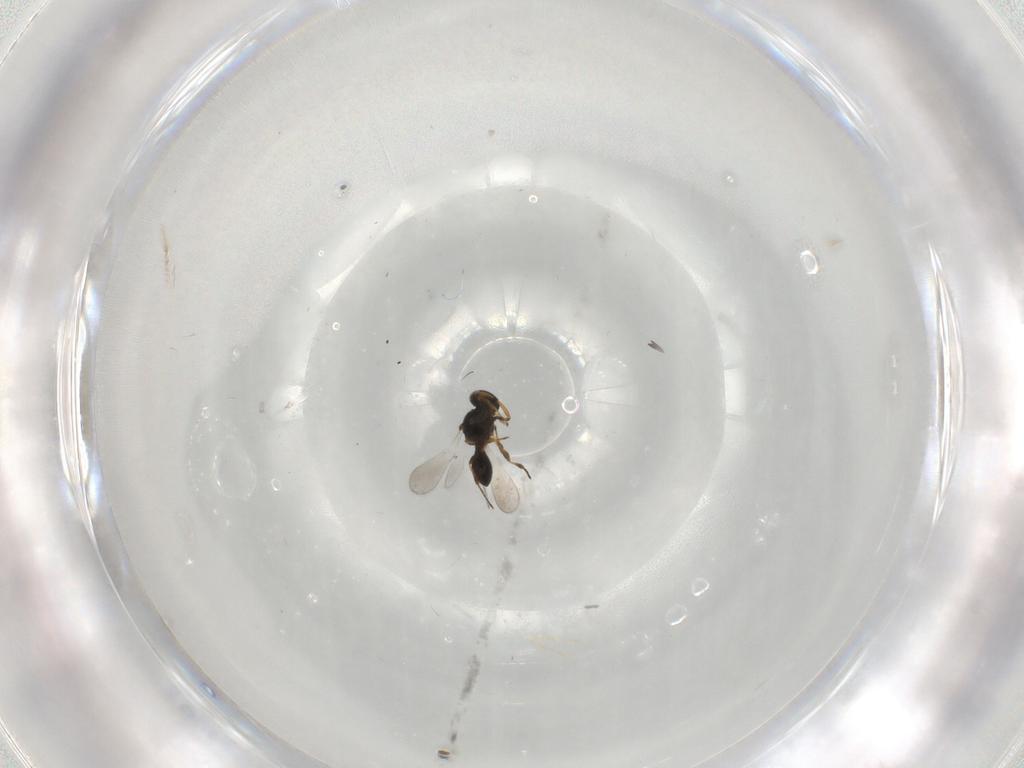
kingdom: Animalia
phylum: Arthropoda
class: Insecta
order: Hymenoptera
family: Platygastridae
